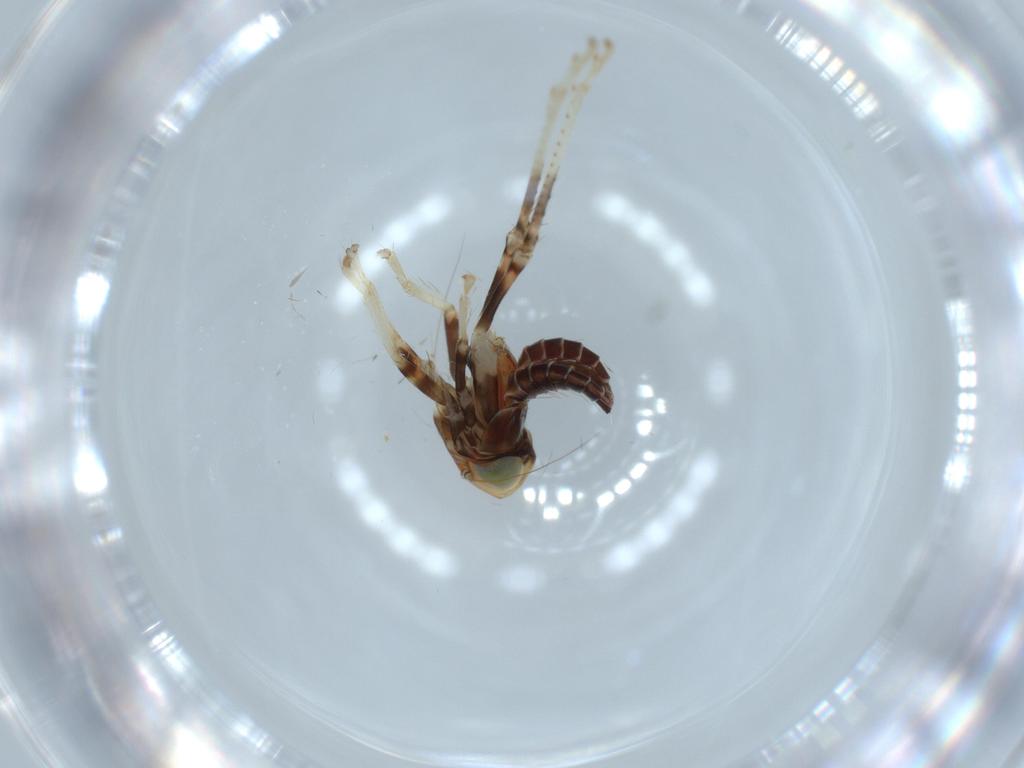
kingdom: Animalia
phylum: Arthropoda
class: Insecta
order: Hemiptera
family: Cicadellidae
